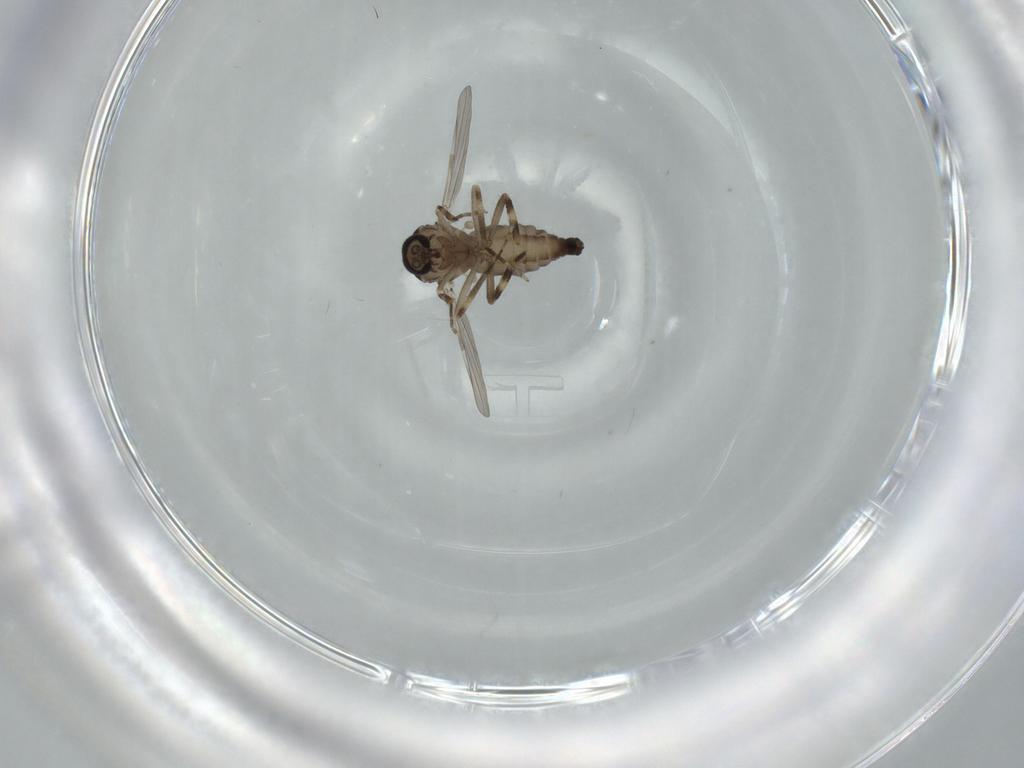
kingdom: Animalia
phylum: Arthropoda
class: Insecta
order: Diptera
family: Ceratopogonidae
